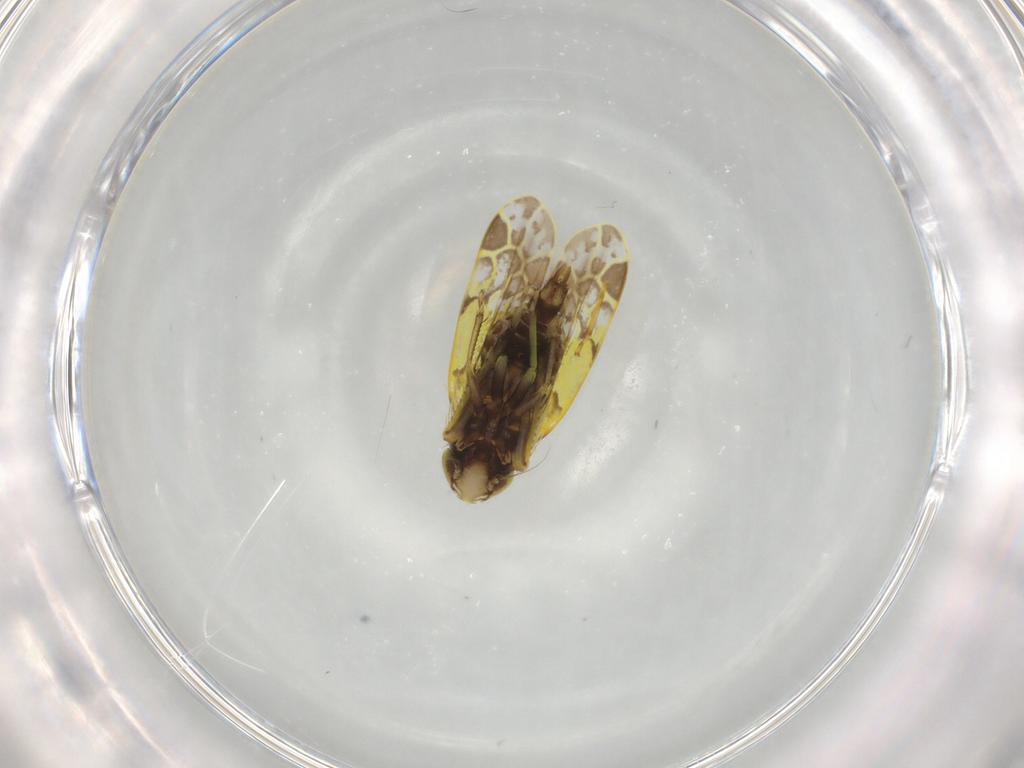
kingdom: Animalia
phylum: Arthropoda
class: Insecta
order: Hemiptera
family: Cicadellidae
